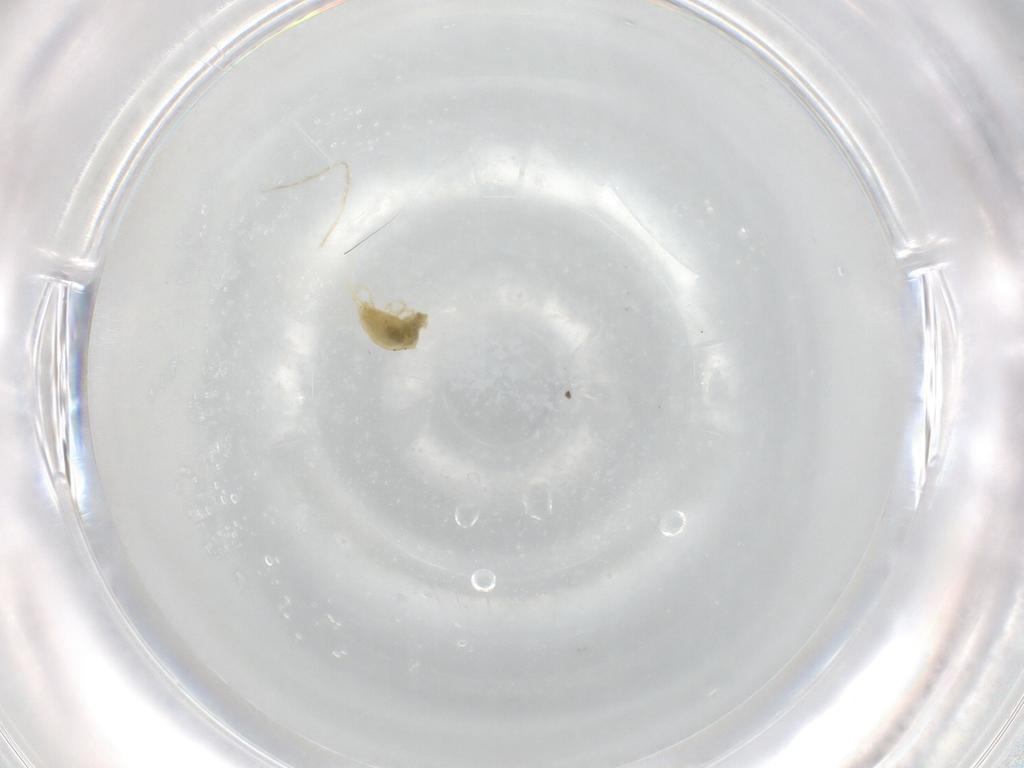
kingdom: Animalia
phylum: Arthropoda
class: Arachnida
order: Trombidiformes
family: Tetranychidae
